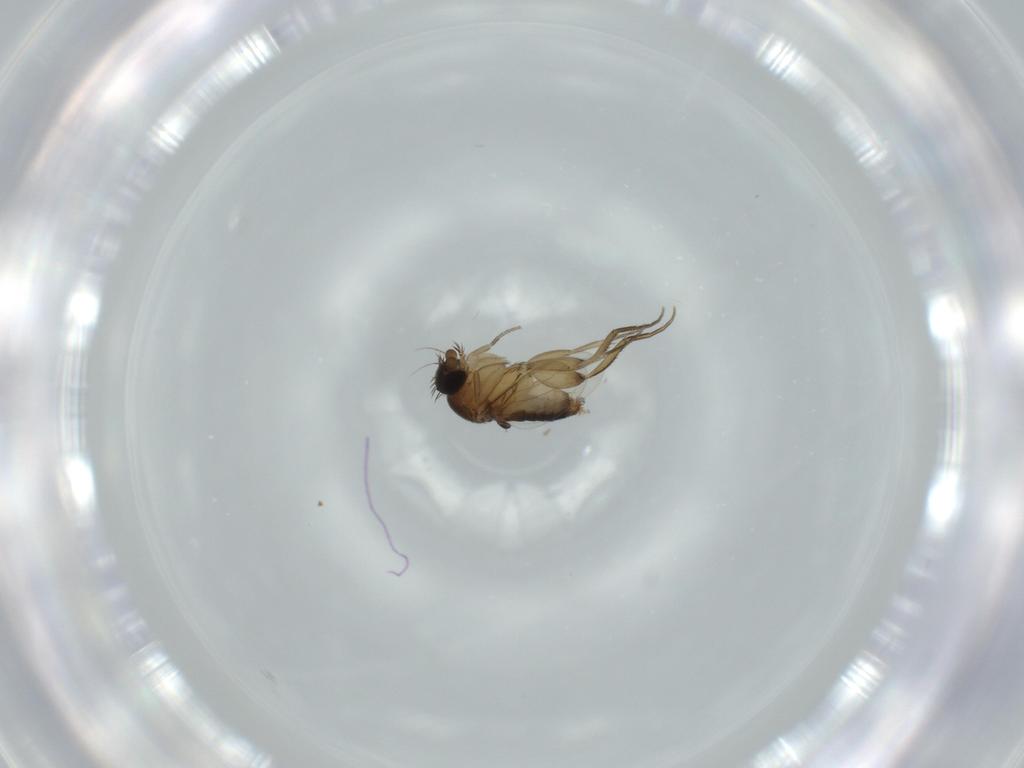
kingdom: Animalia
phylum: Arthropoda
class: Insecta
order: Diptera
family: Phoridae
